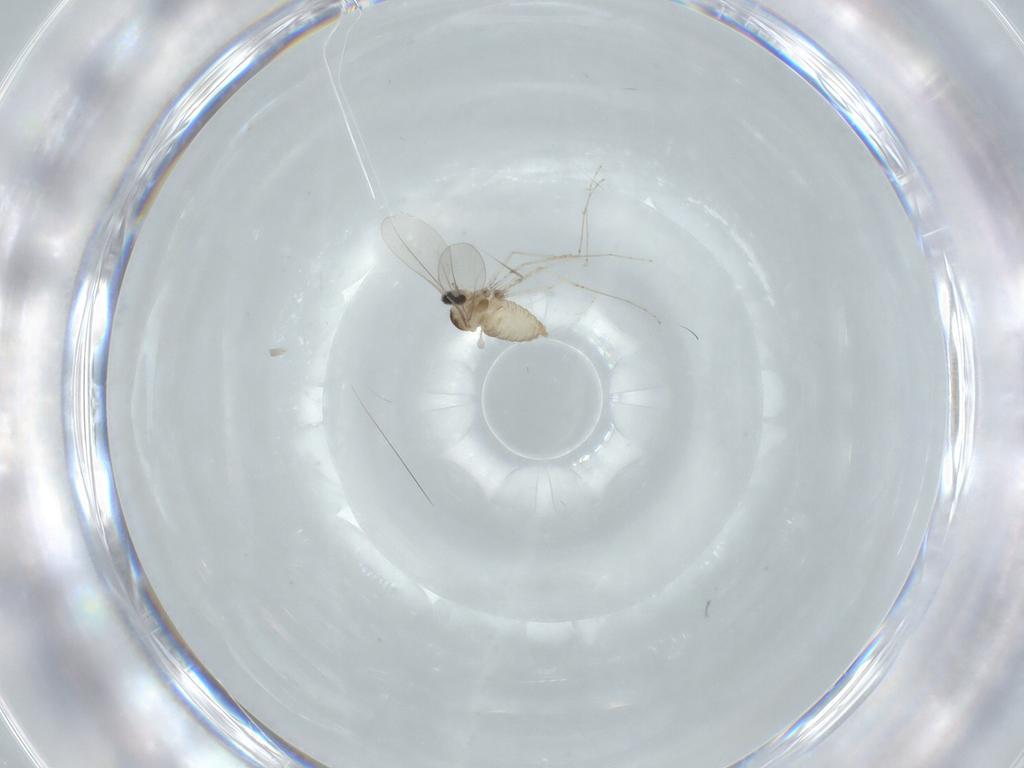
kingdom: Animalia
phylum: Arthropoda
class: Insecta
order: Diptera
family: Cecidomyiidae
